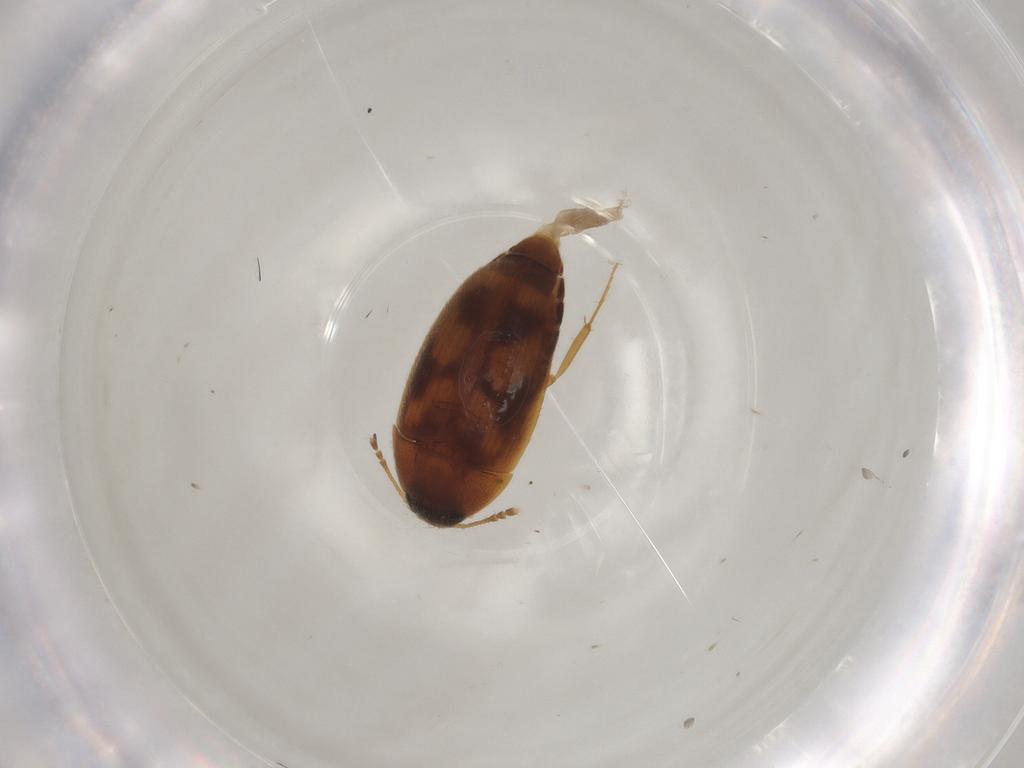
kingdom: Animalia
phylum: Arthropoda
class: Insecta
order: Coleoptera
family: Mycetophagidae
